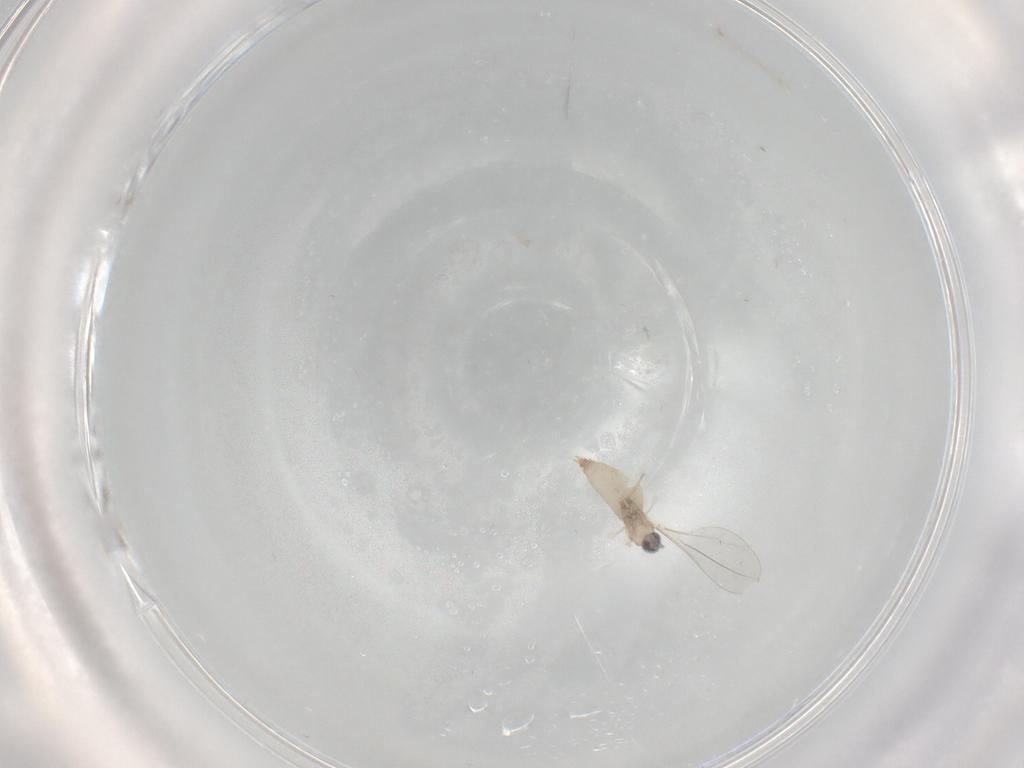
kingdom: Animalia
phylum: Arthropoda
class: Insecta
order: Diptera
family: Cecidomyiidae
